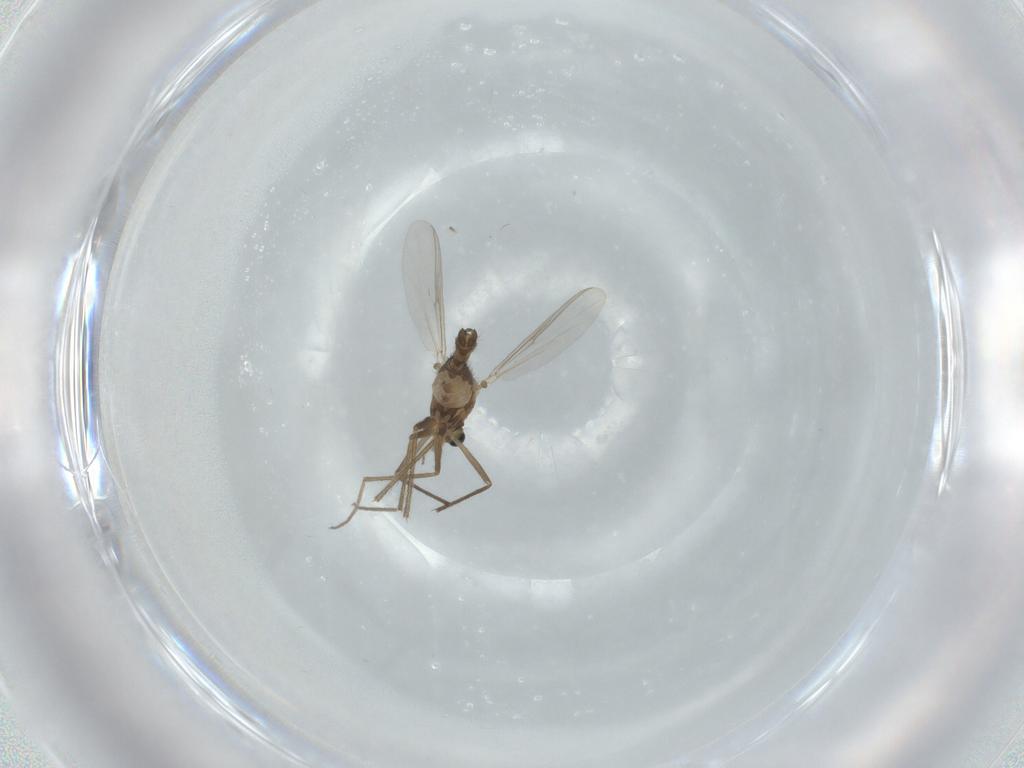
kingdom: Animalia
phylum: Arthropoda
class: Insecta
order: Diptera
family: Chironomidae
